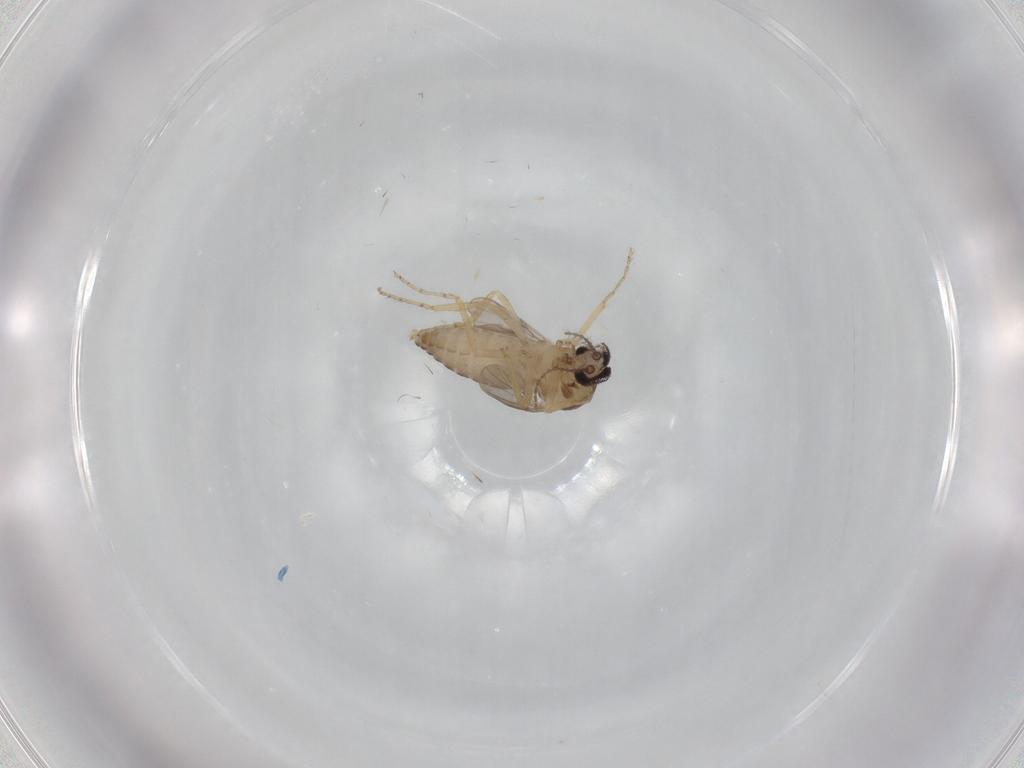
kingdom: Animalia
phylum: Arthropoda
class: Insecta
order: Diptera
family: Ceratopogonidae
